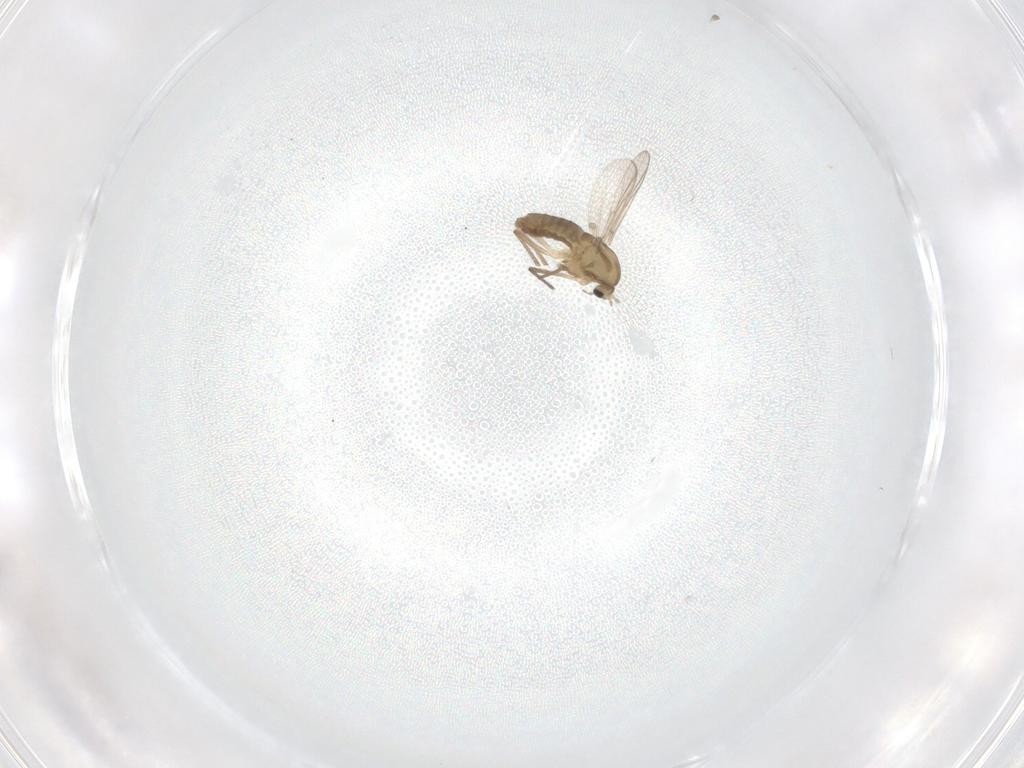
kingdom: Animalia
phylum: Arthropoda
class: Insecta
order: Diptera
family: Chironomidae
